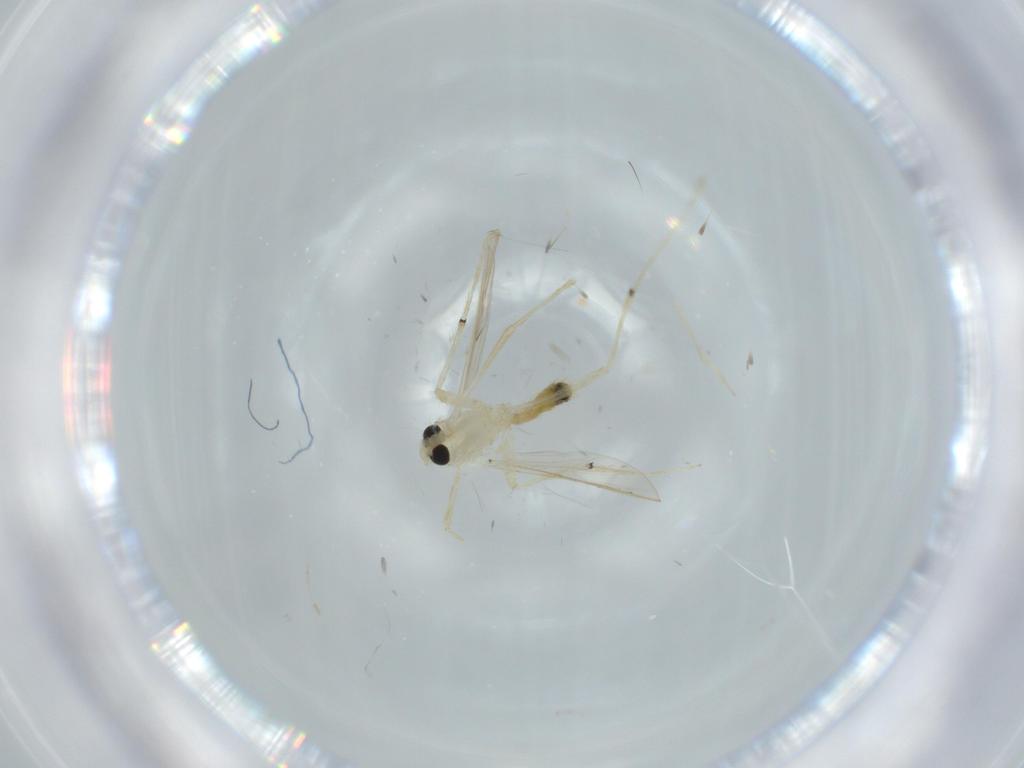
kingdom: Animalia
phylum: Arthropoda
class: Insecta
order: Diptera
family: Chironomidae
